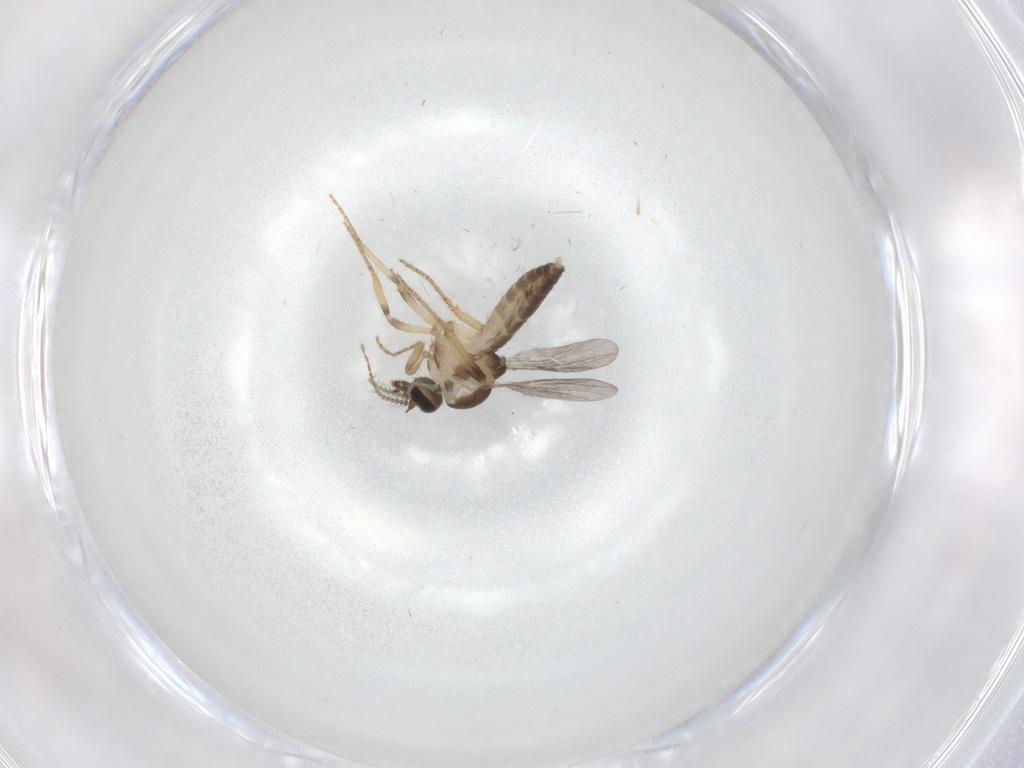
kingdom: Animalia
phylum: Arthropoda
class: Insecta
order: Diptera
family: Ceratopogonidae
